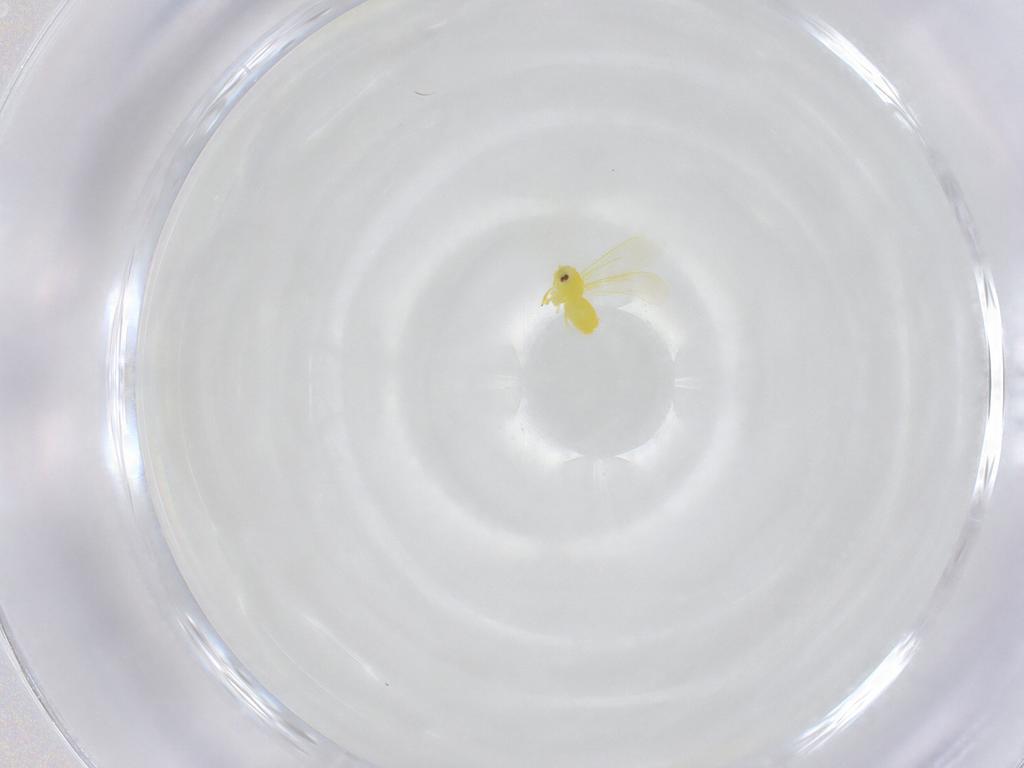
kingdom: Animalia
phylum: Arthropoda
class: Insecta
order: Hemiptera
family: Aleyrodidae
